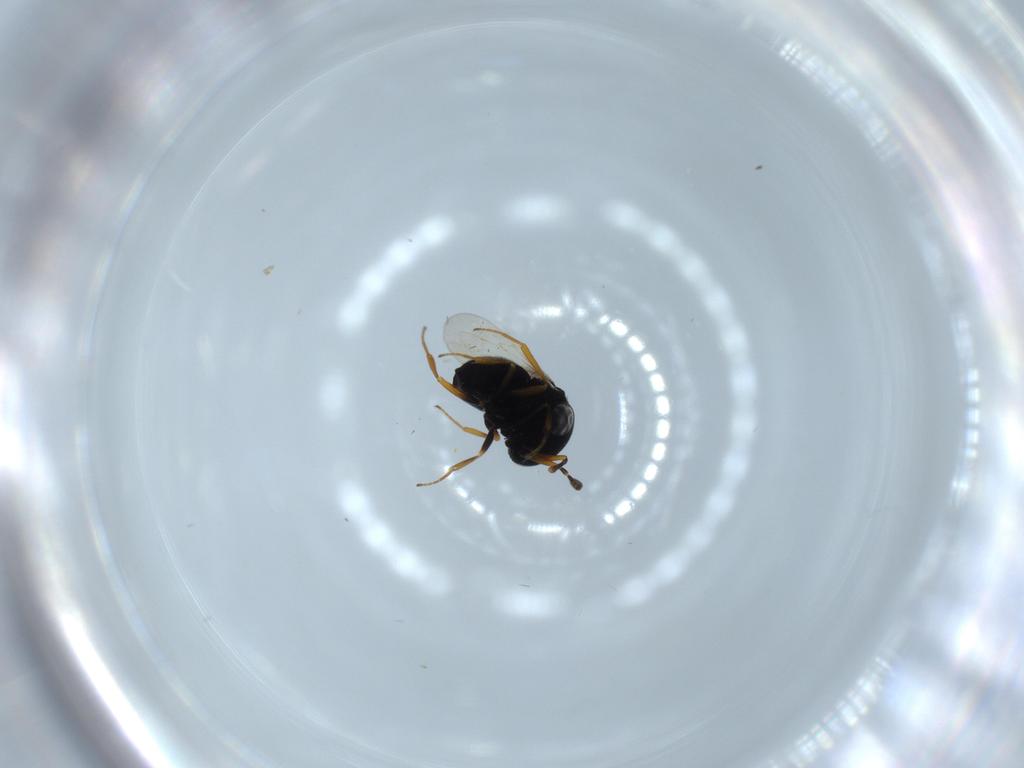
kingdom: Animalia
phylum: Arthropoda
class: Insecta
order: Hymenoptera
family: Scelionidae
